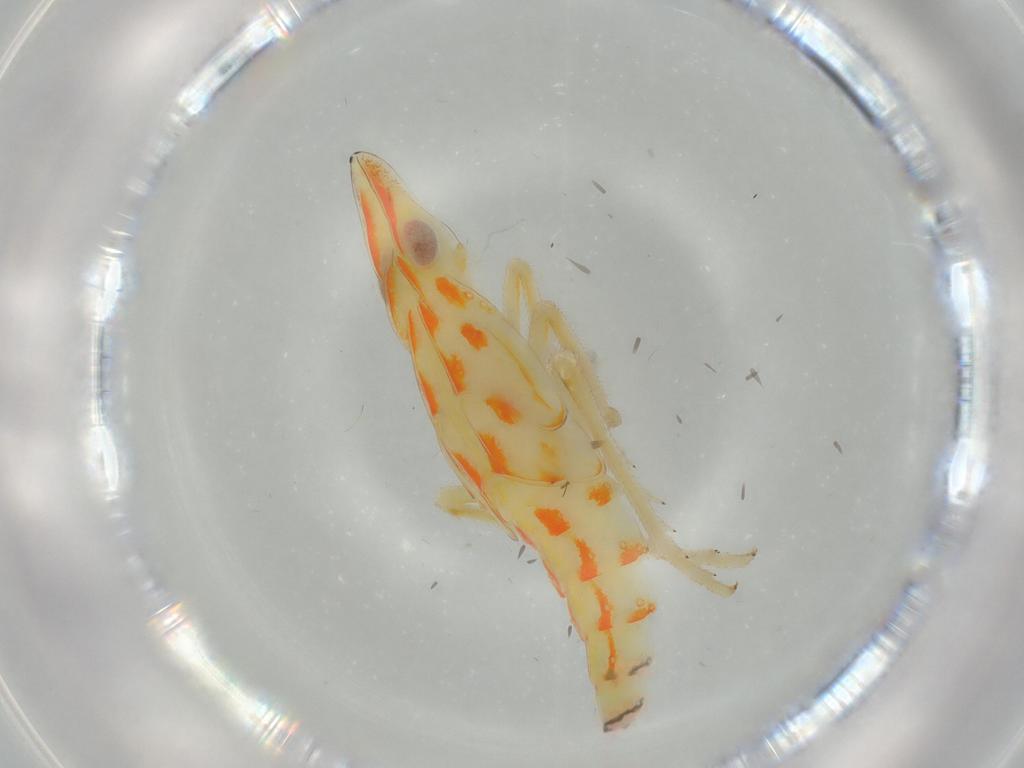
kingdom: Animalia
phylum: Arthropoda
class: Insecta
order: Hemiptera
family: Tropiduchidae
